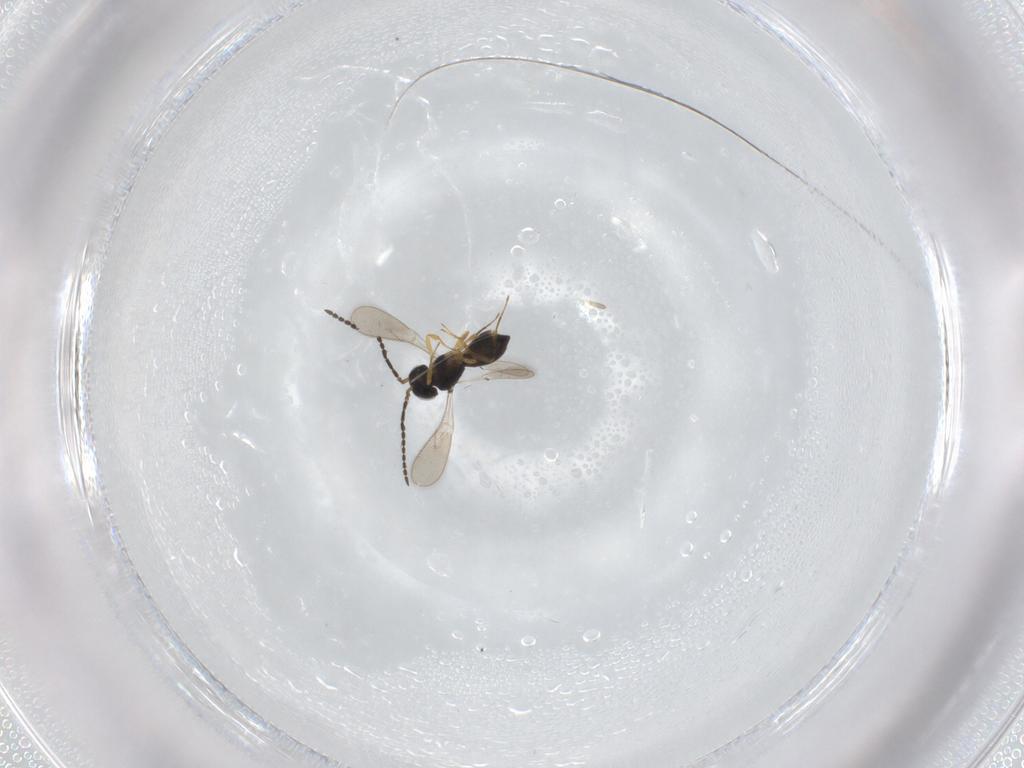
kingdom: Animalia
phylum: Arthropoda
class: Insecta
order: Hymenoptera
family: Scelionidae
